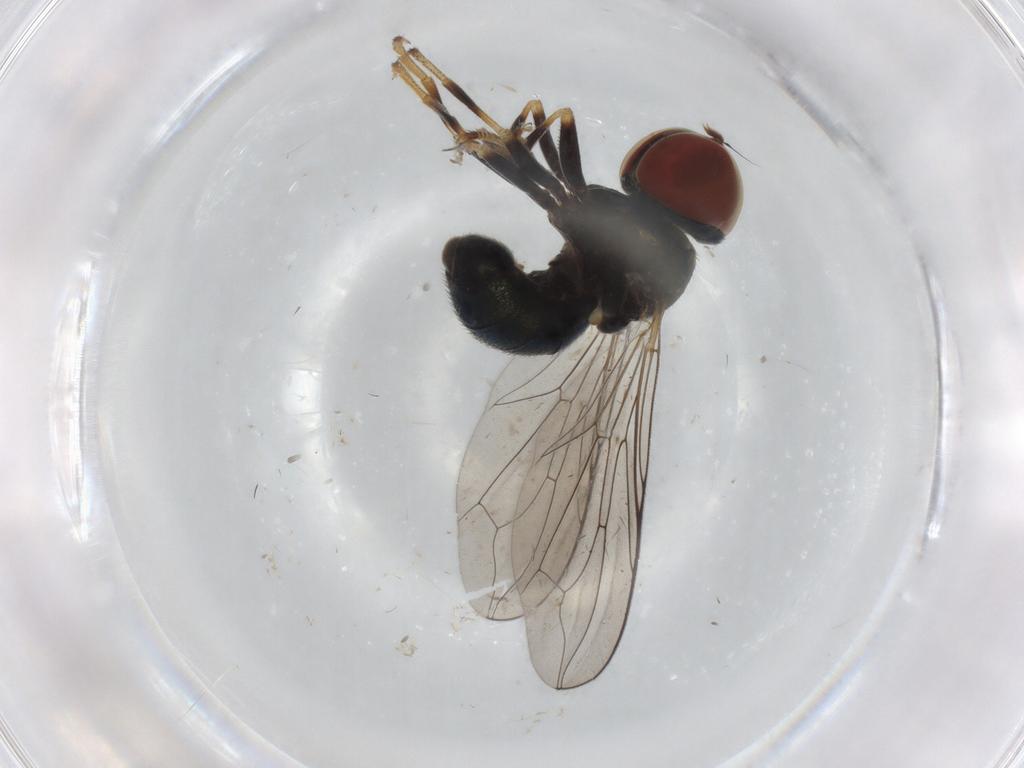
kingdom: Animalia
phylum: Arthropoda
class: Insecta
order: Diptera
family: Pipunculidae
